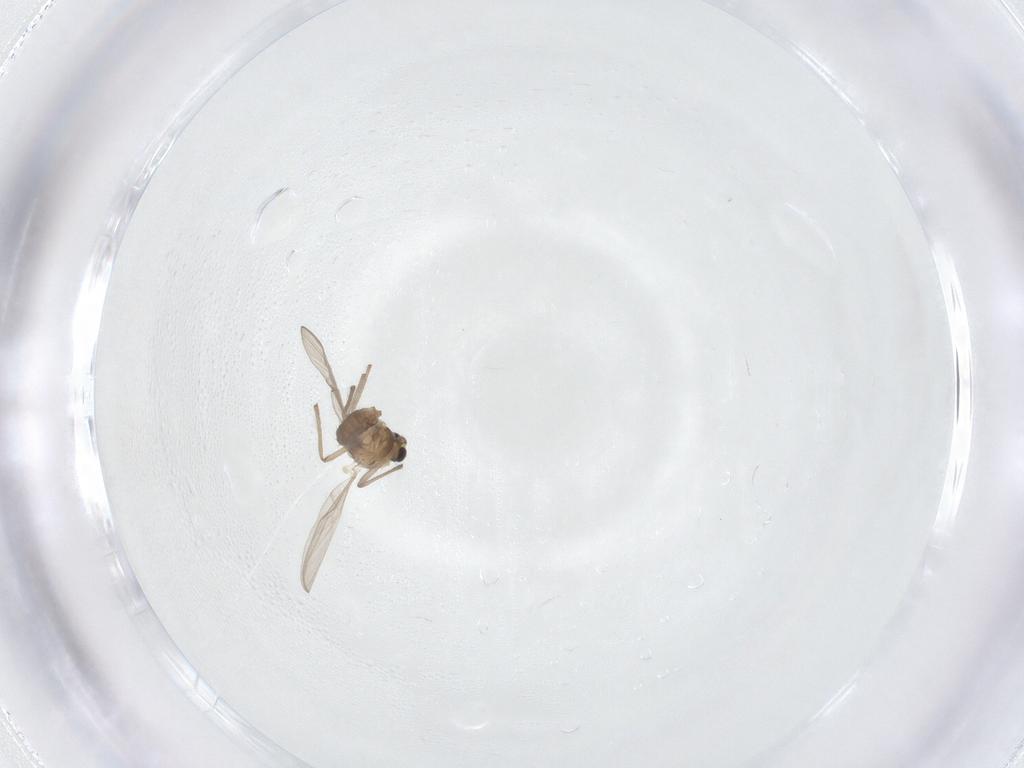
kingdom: Animalia
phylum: Arthropoda
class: Insecta
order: Diptera
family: Chironomidae
